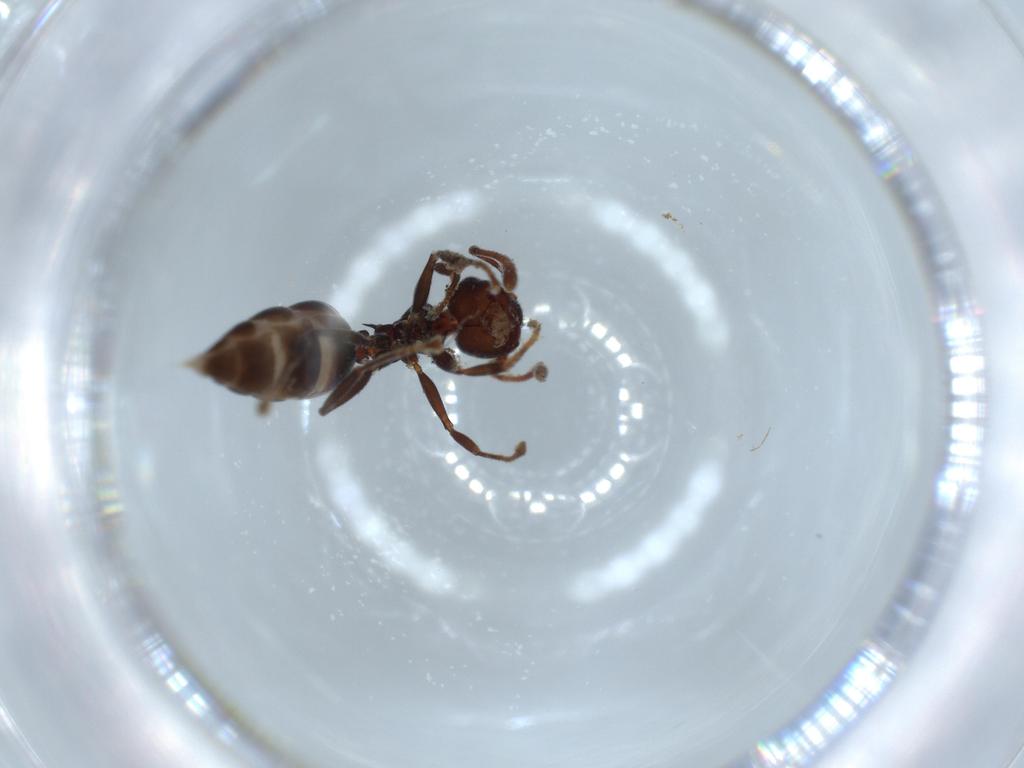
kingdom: Animalia
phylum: Arthropoda
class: Insecta
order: Hymenoptera
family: Formicidae
